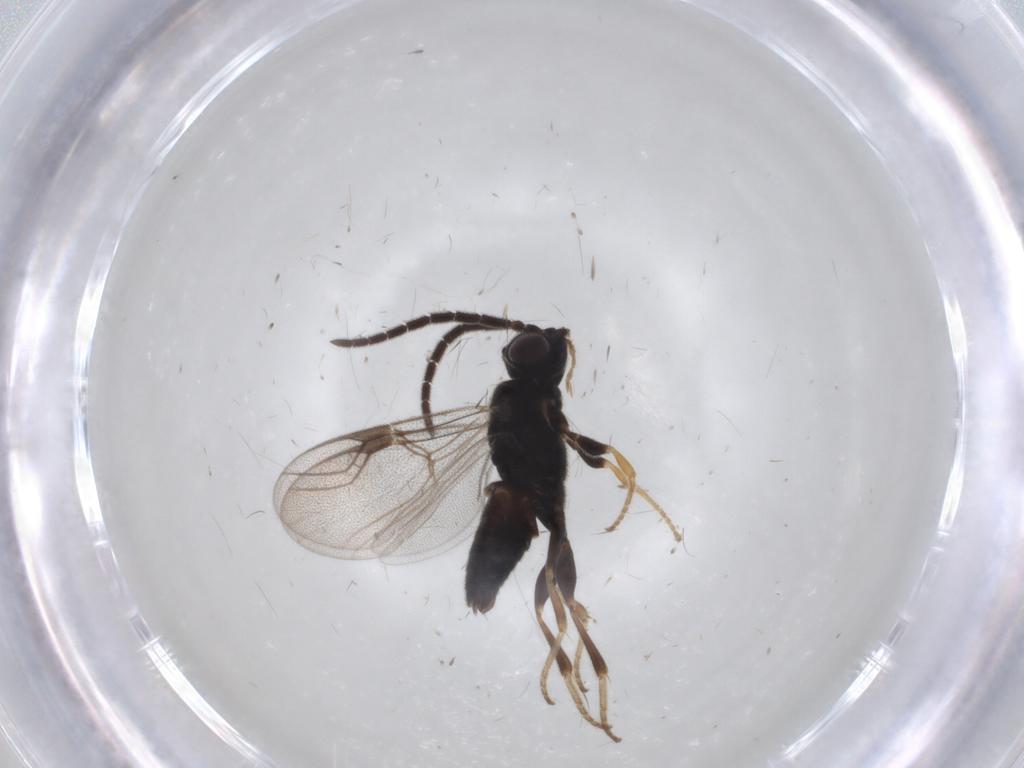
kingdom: Animalia
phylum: Arthropoda
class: Insecta
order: Hymenoptera
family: Dryinidae
